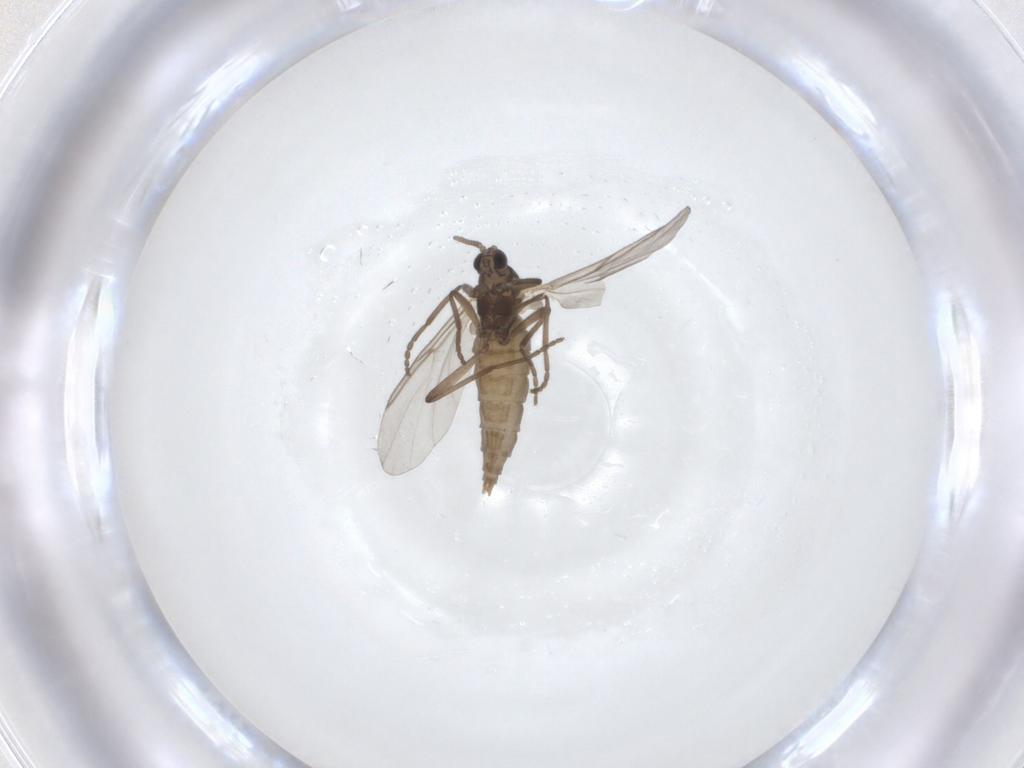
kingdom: Animalia
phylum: Arthropoda
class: Insecta
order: Diptera
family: Cecidomyiidae
